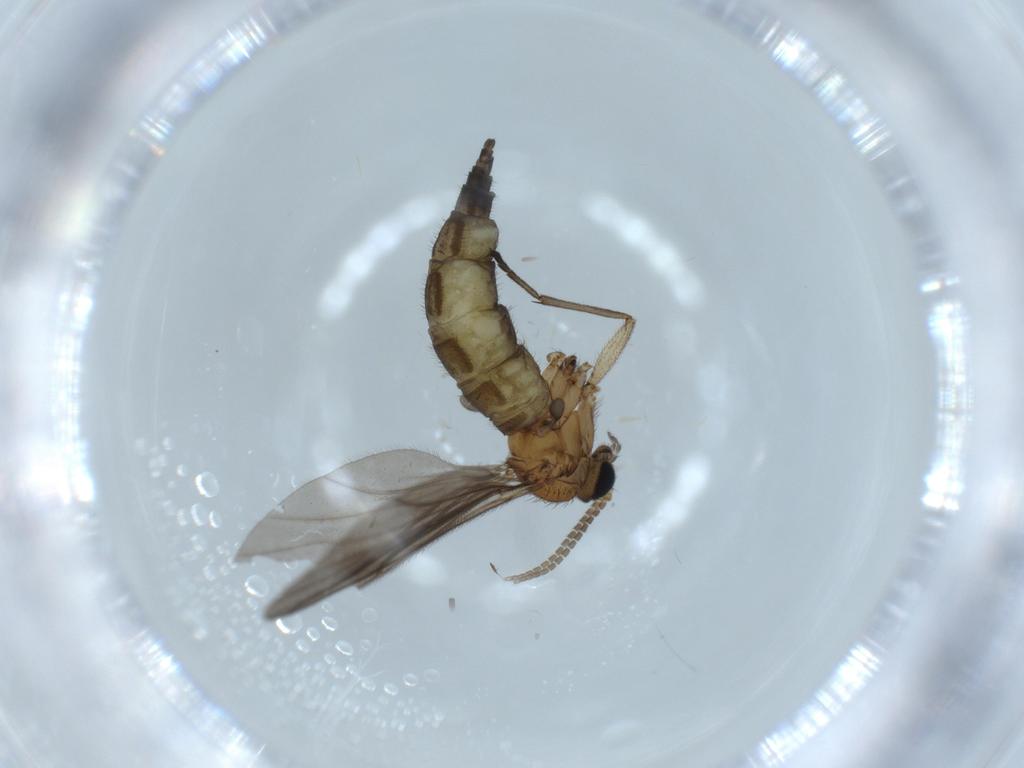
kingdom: Animalia
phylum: Arthropoda
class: Insecta
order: Diptera
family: Sciaridae
